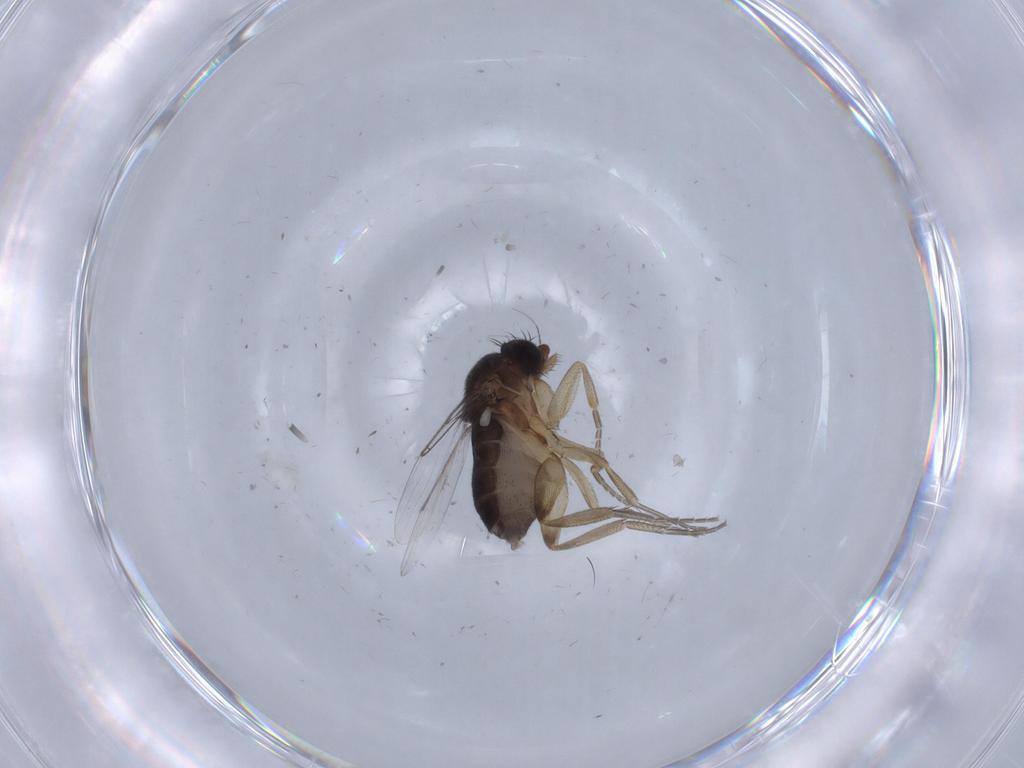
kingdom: Animalia
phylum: Arthropoda
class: Insecta
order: Diptera
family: Phoridae
